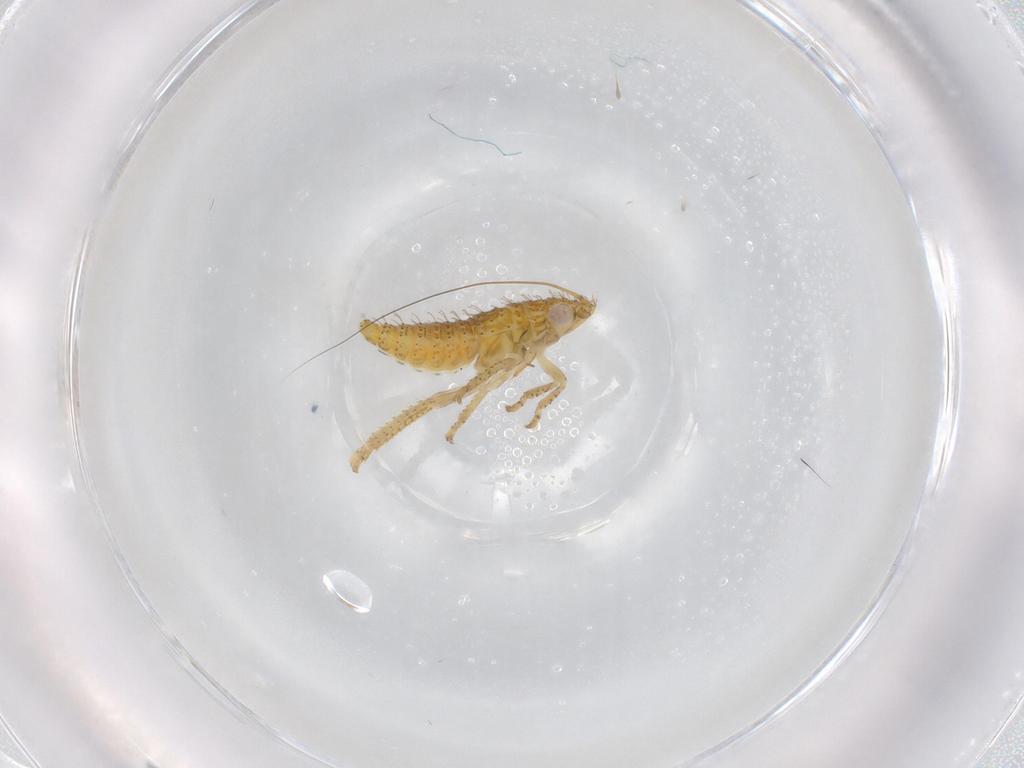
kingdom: Animalia
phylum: Arthropoda
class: Insecta
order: Hemiptera
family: Cicadellidae
